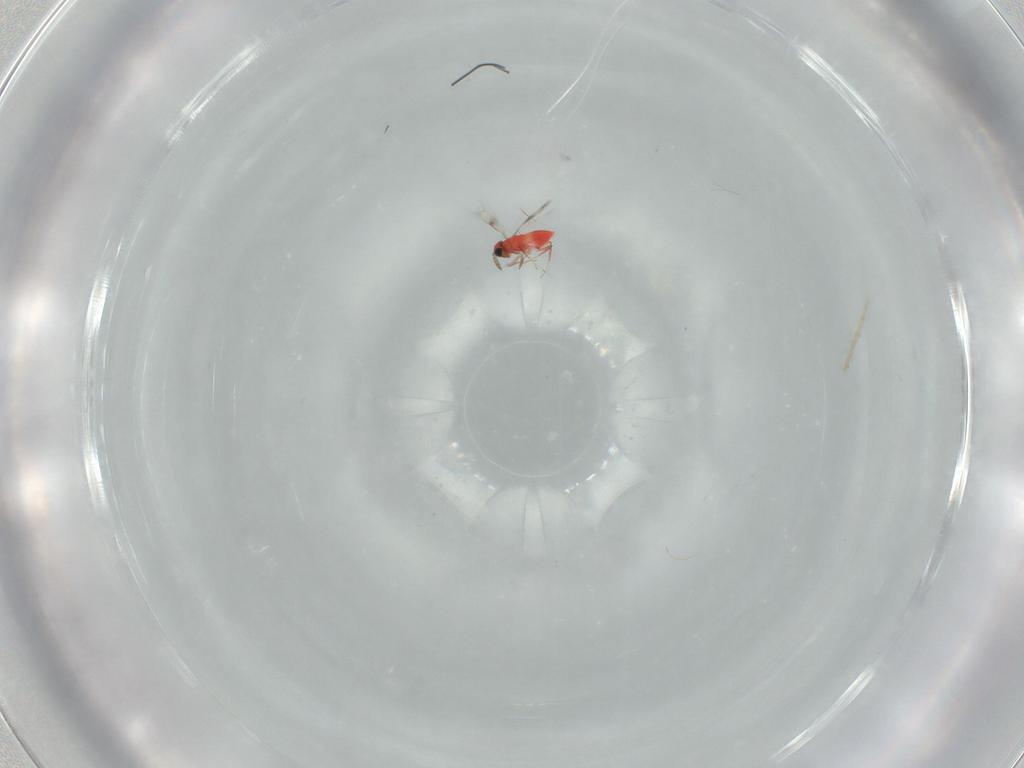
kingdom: Animalia
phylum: Arthropoda
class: Insecta
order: Hymenoptera
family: Trichogrammatidae
